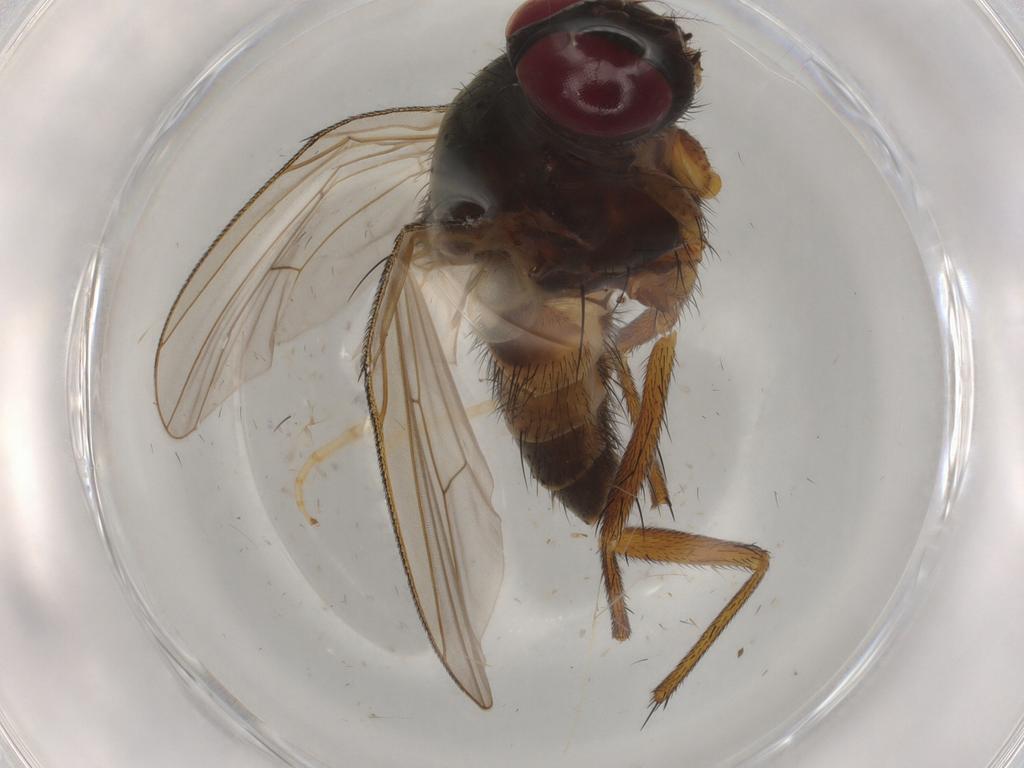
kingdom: Animalia
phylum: Arthropoda
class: Insecta
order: Diptera
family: Muscidae
